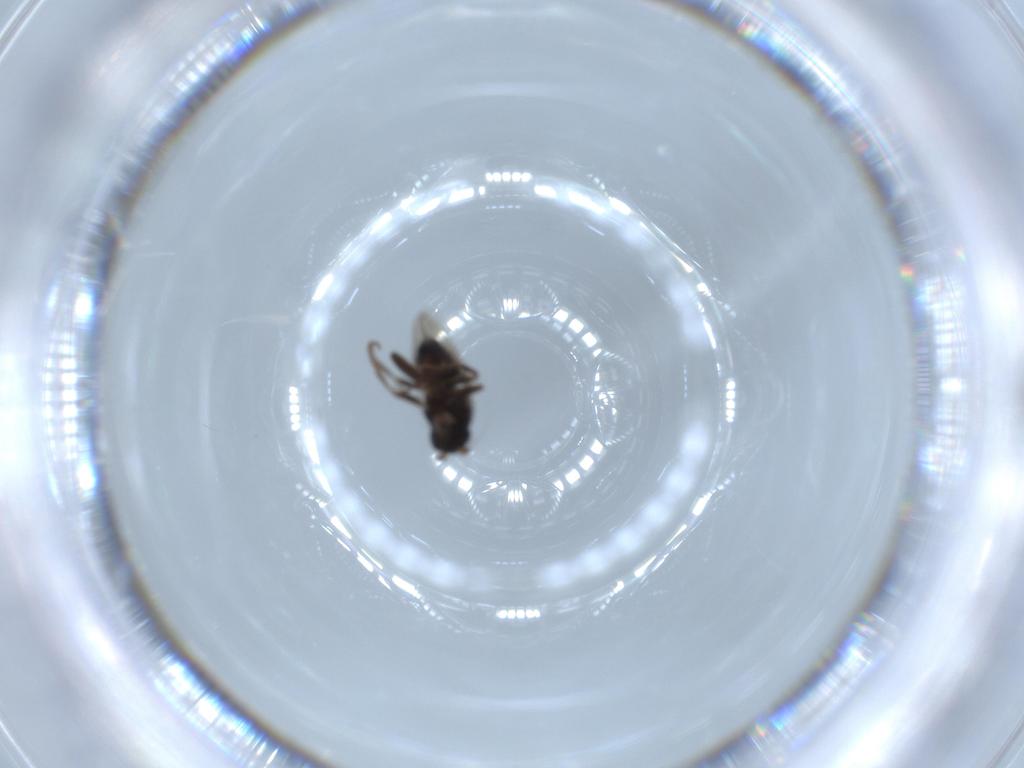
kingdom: Animalia
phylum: Arthropoda
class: Insecta
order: Diptera
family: Sphaeroceridae
